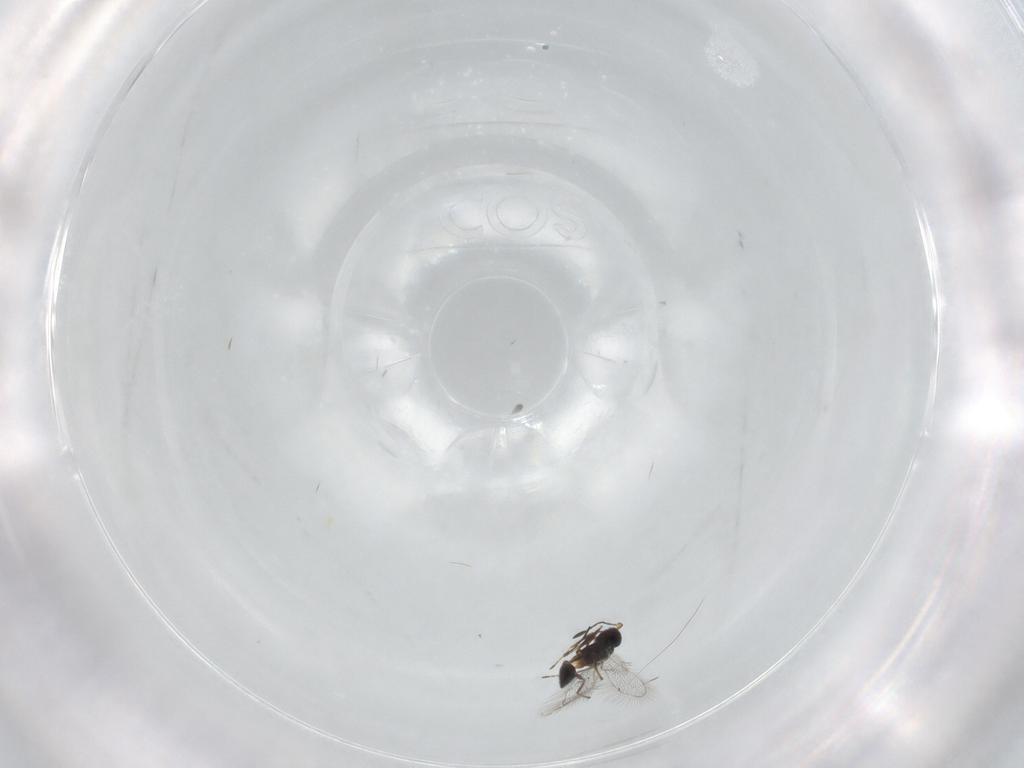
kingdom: Animalia
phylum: Arthropoda
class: Insecta
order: Hymenoptera
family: Mymaridae
